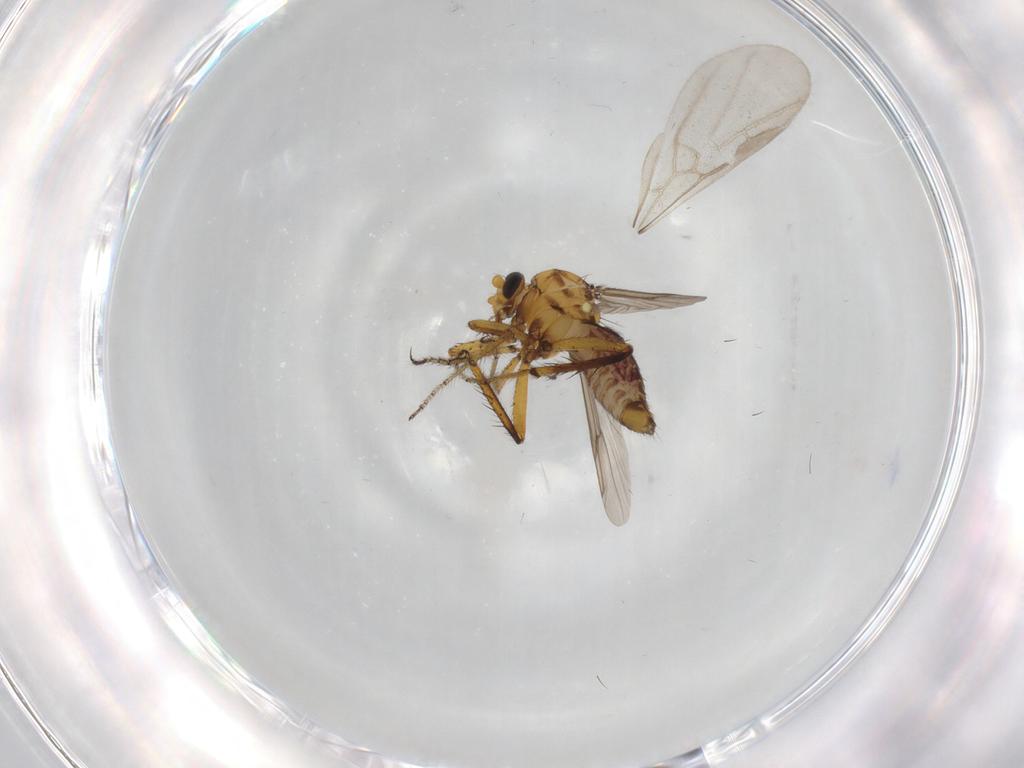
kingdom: Animalia
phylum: Arthropoda
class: Insecta
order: Diptera
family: Ceratopogonidae
